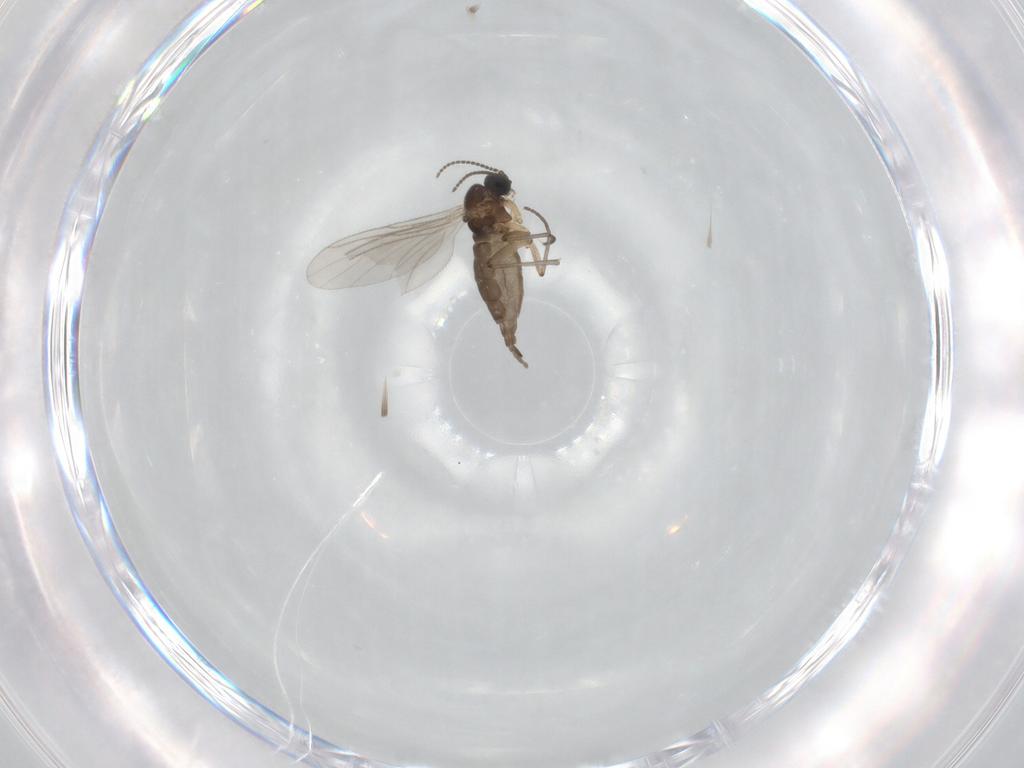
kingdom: Animalia
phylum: Arthropoda
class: Insecta
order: Diptera
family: Sciaridae
